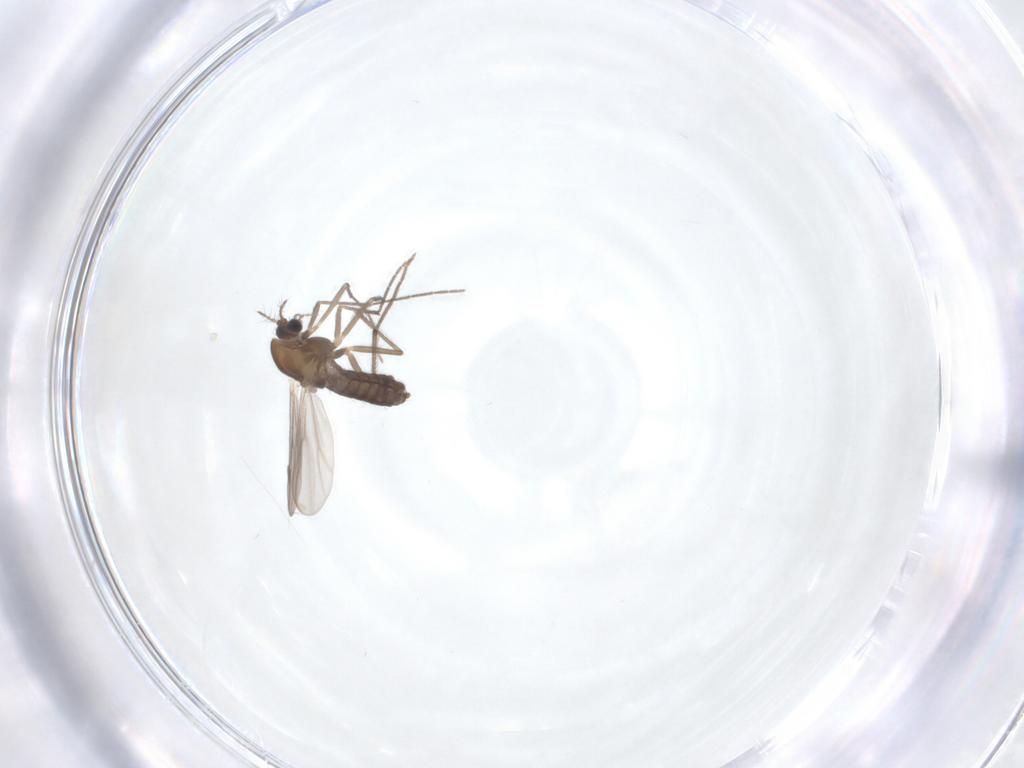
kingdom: Animalia
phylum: Arthropoda
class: Insecta
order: Diptera
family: Chironomidae
